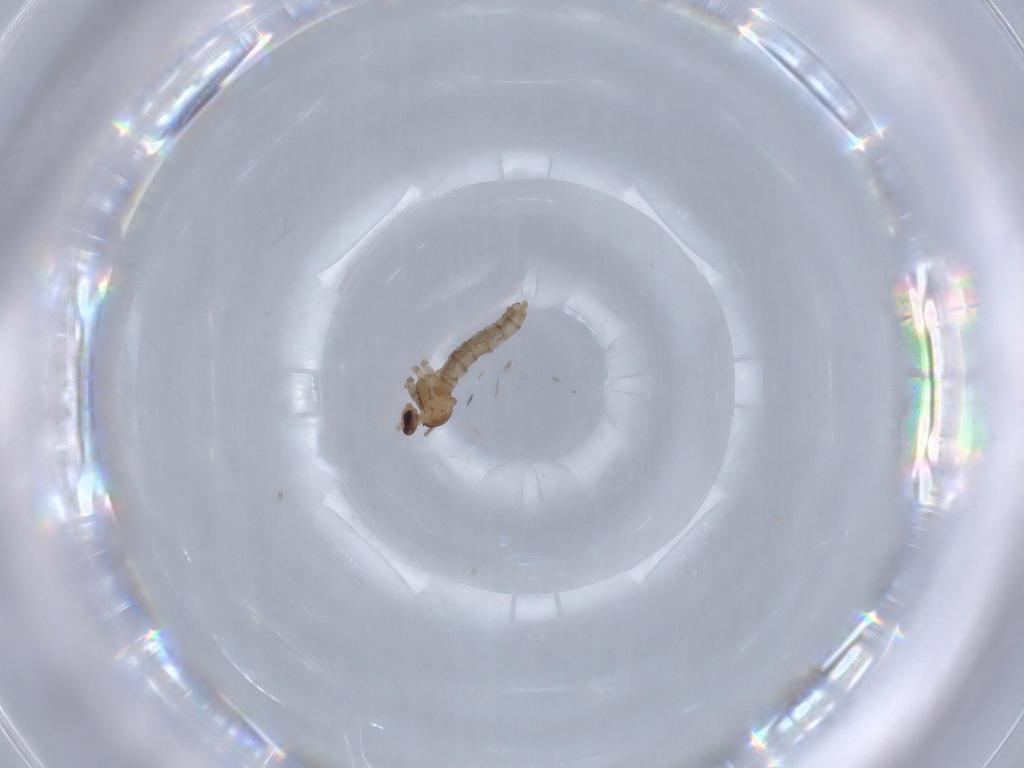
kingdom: Animalia
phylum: Arthropoda
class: Insecta
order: Diptera
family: Cecidomyiidae
